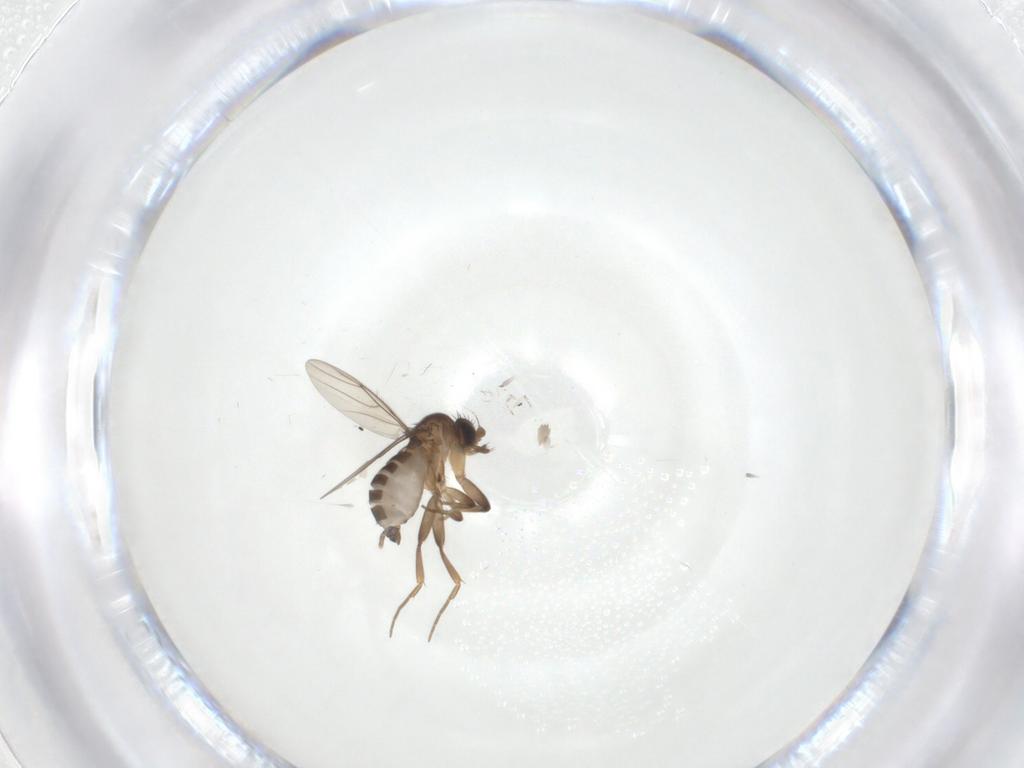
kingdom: Animalia
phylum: Arthropoda
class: Insecta
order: Diptera
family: Phoridae
